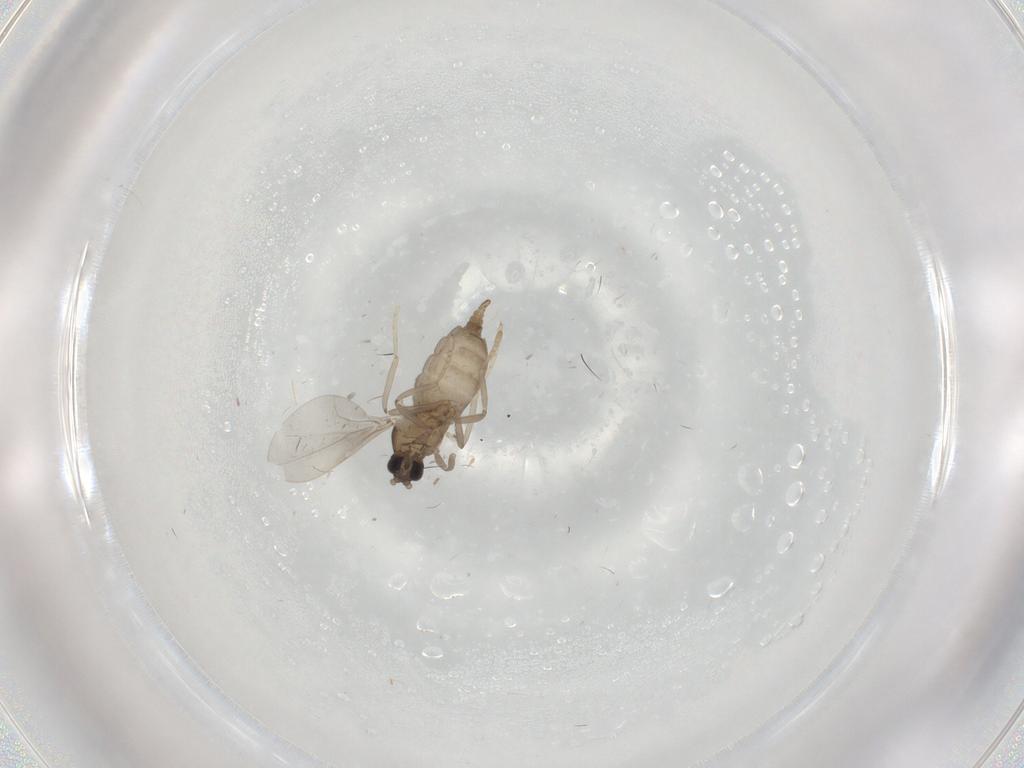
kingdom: Animalia
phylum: Arthropoda
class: Insecta
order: Diptera
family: Cecidomyiidae
